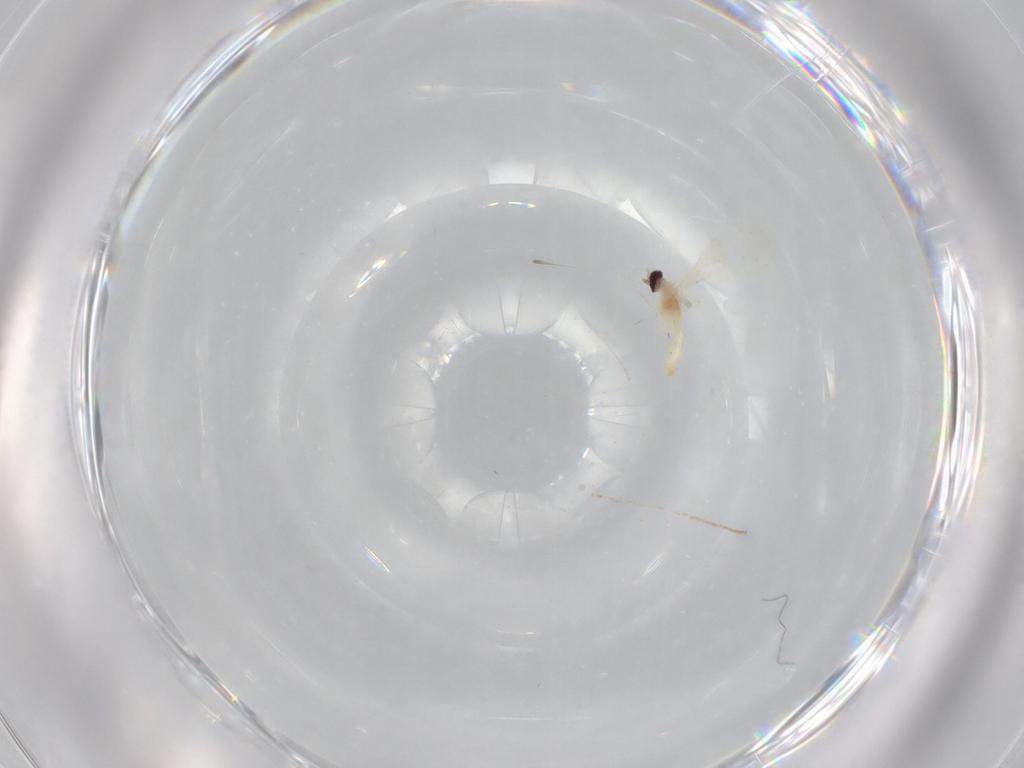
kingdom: Animalia
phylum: Arthropoda
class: Insecta
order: Diptera
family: Cecidomyiidae
